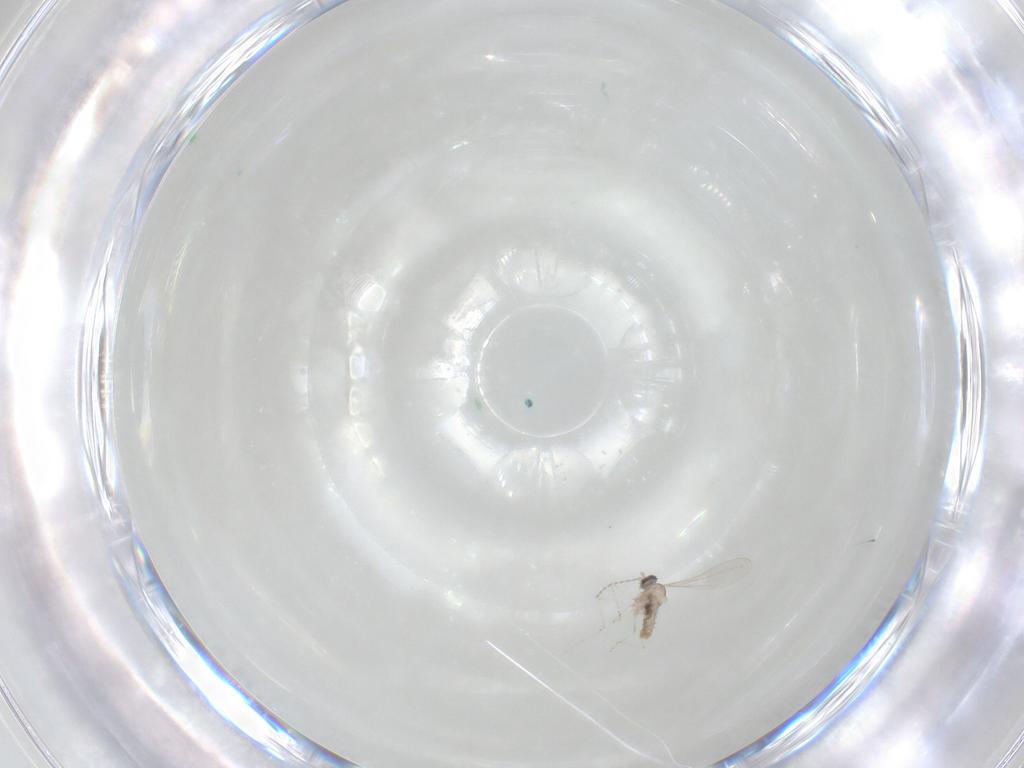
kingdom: Animalia
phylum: Arthropoda
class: Insecta
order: Diptera
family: Cecidomyiidae
